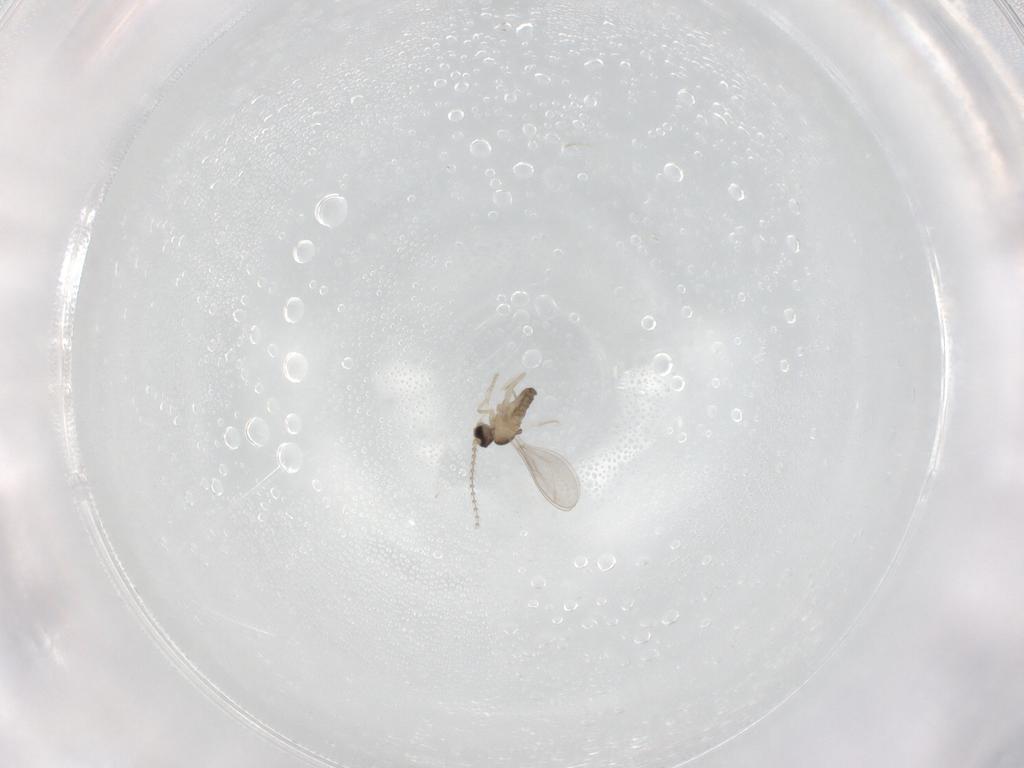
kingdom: Animalia
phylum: Arthropoda
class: Insecta
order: Diptera
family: Cecidomyiidae
